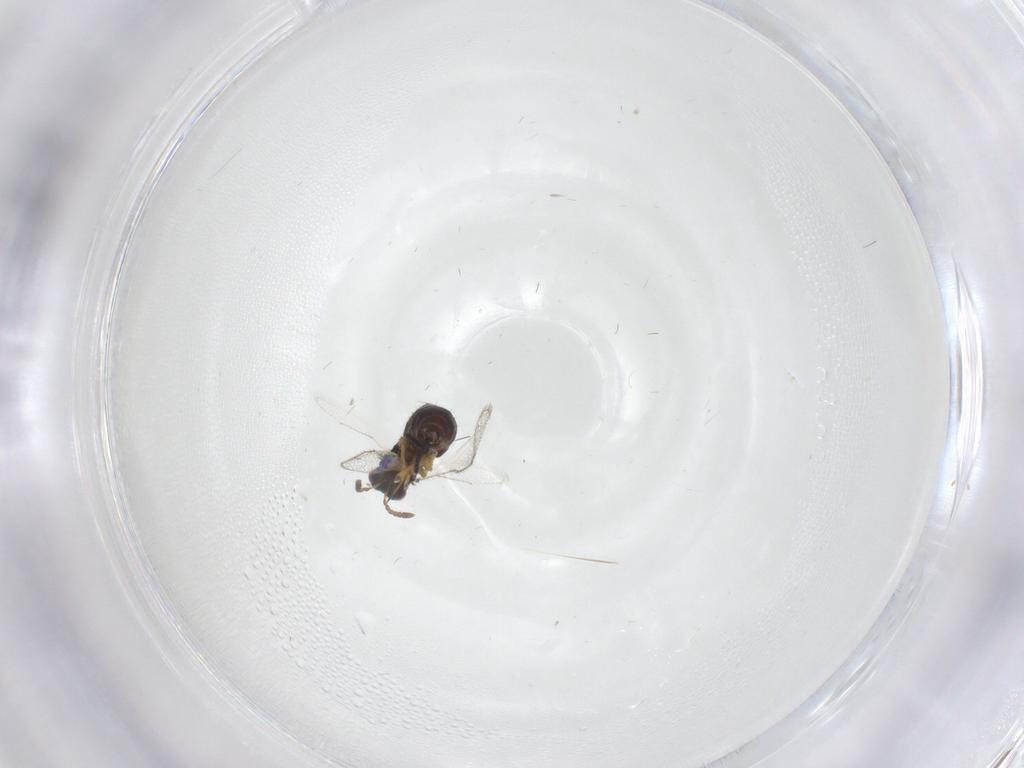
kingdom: Animalia
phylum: Arthropoda
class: Insecta
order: Hymenoptera
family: Torymidae
